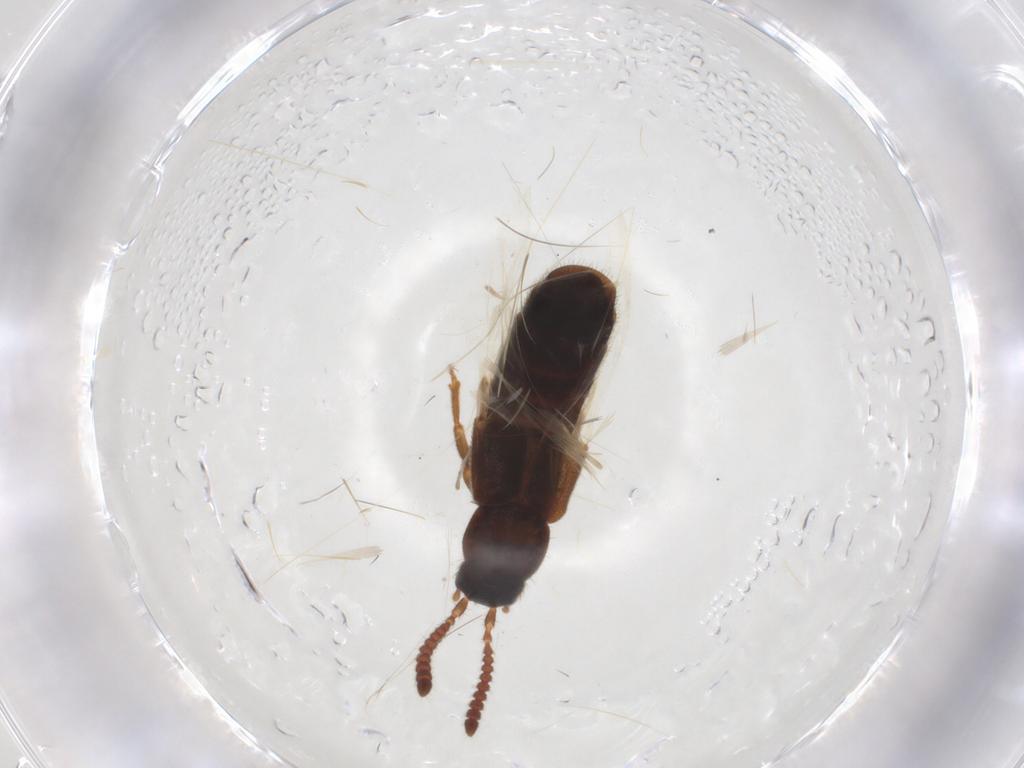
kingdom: Animalia
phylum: Arthropoda
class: Insecta
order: Coleoptera
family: Staphylinidae
